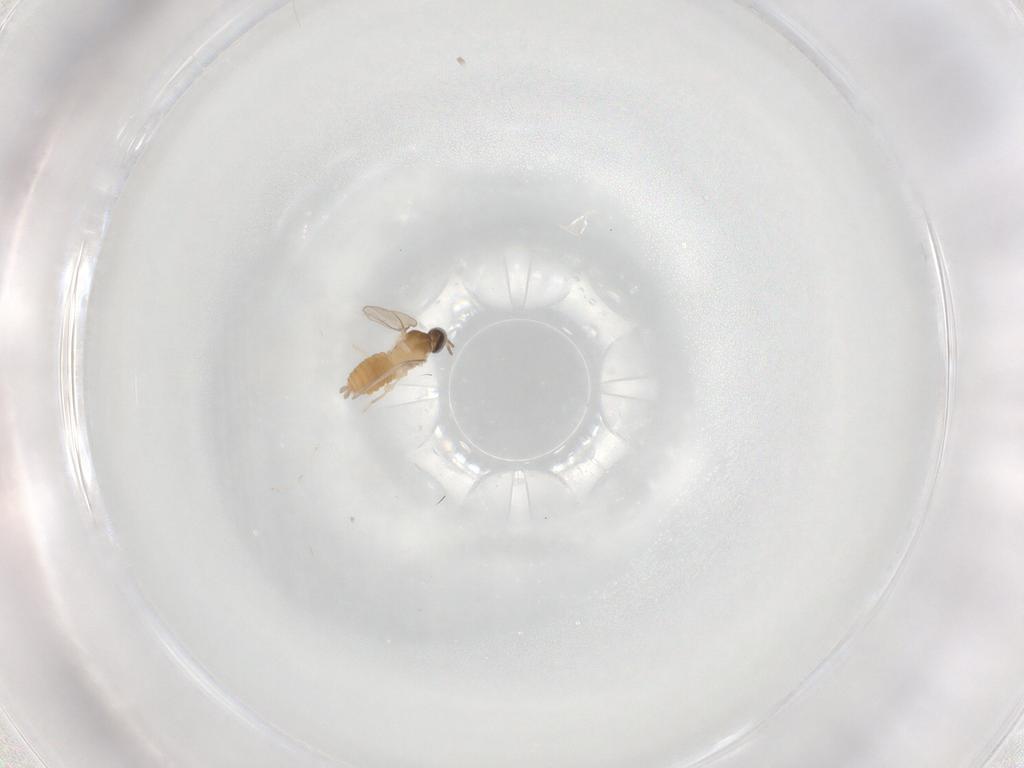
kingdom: Animalia
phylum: Arthropoda
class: Insecta
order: Diptera
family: Cecidomyiidae
